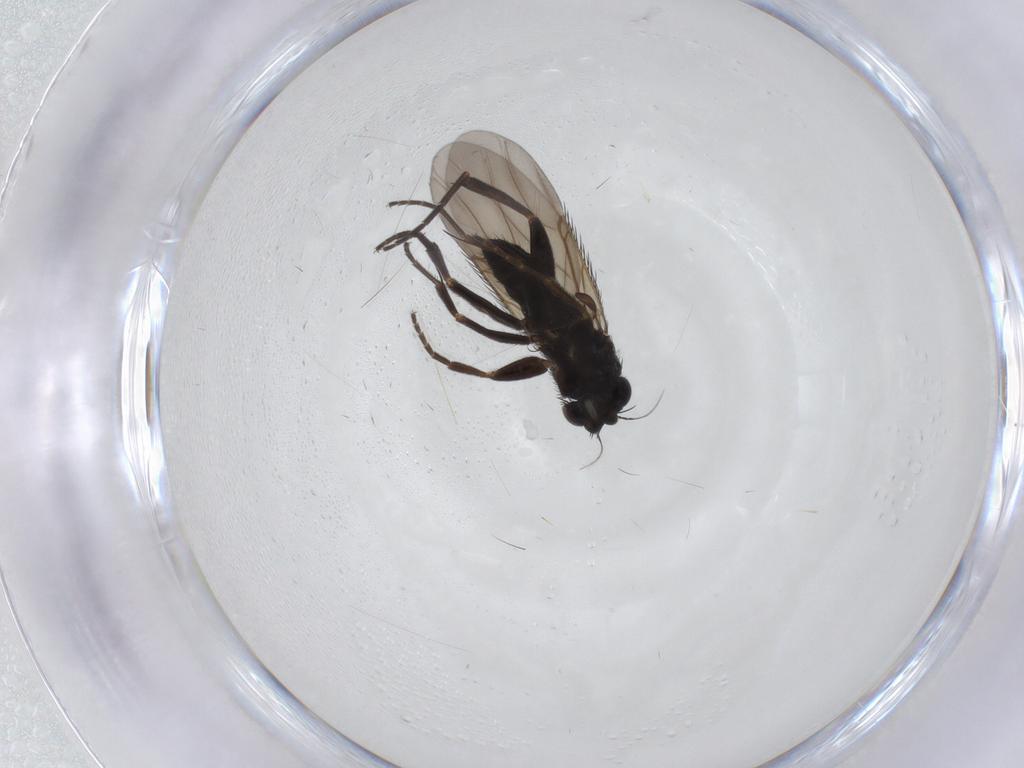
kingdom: Animalia
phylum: Arthropoda
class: Insecta
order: Diptera
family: Phoridae
